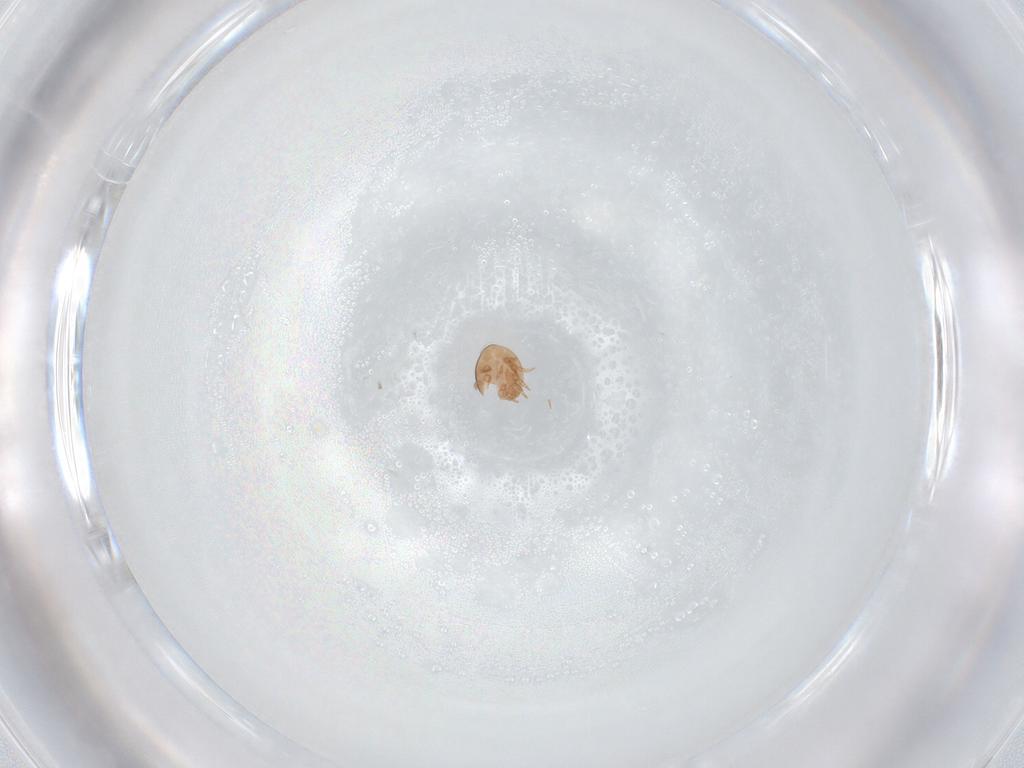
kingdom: Animalia
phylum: Arthropoda
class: Arachnida
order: Mesostigmata
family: Trematuridae
